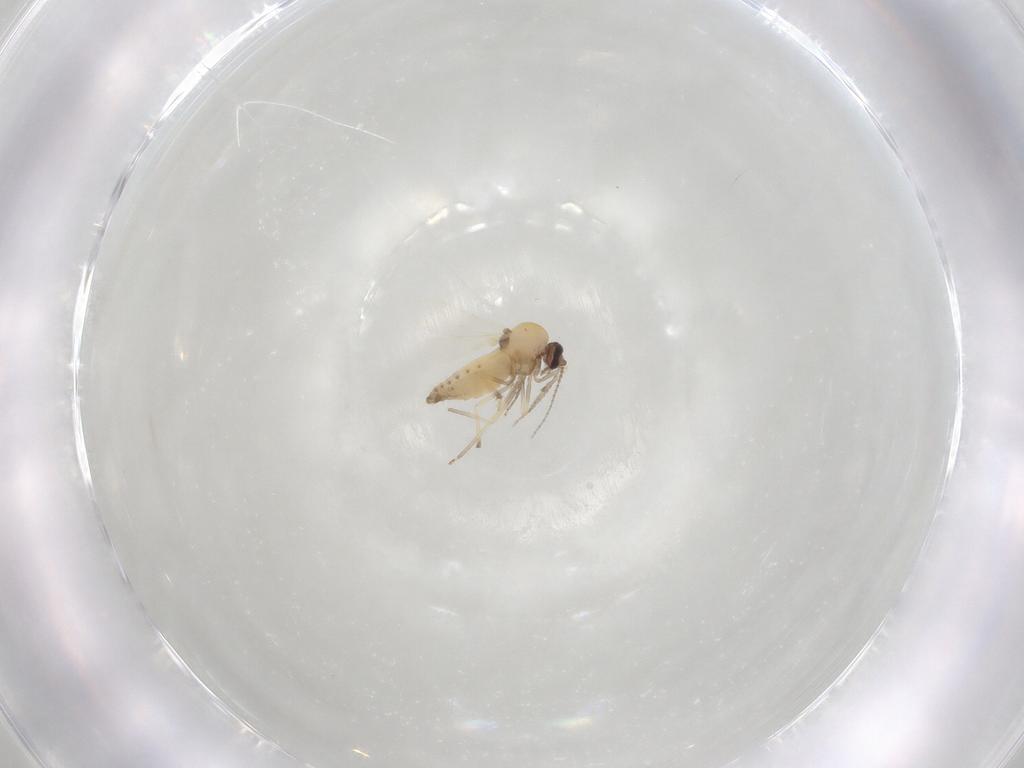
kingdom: Animalia
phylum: Arthropoda
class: Insecta
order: Diptera
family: Ceratopogonidae
